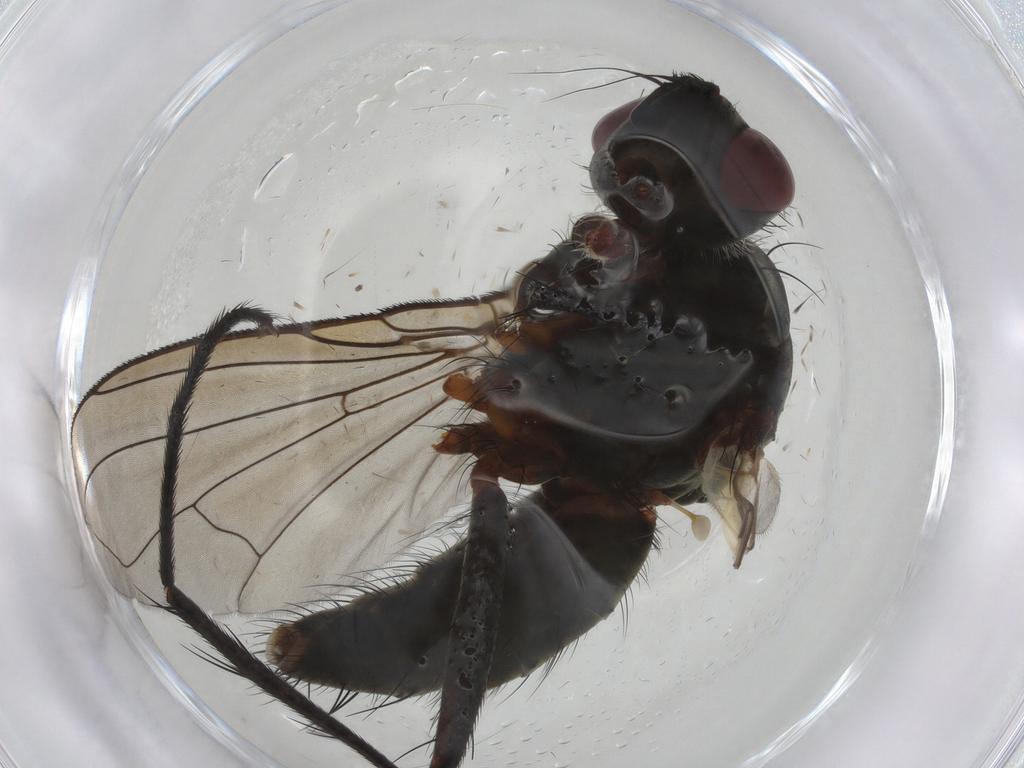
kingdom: Animalia
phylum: Arthropoda
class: Insecta
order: Diptera
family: Tachinidae
